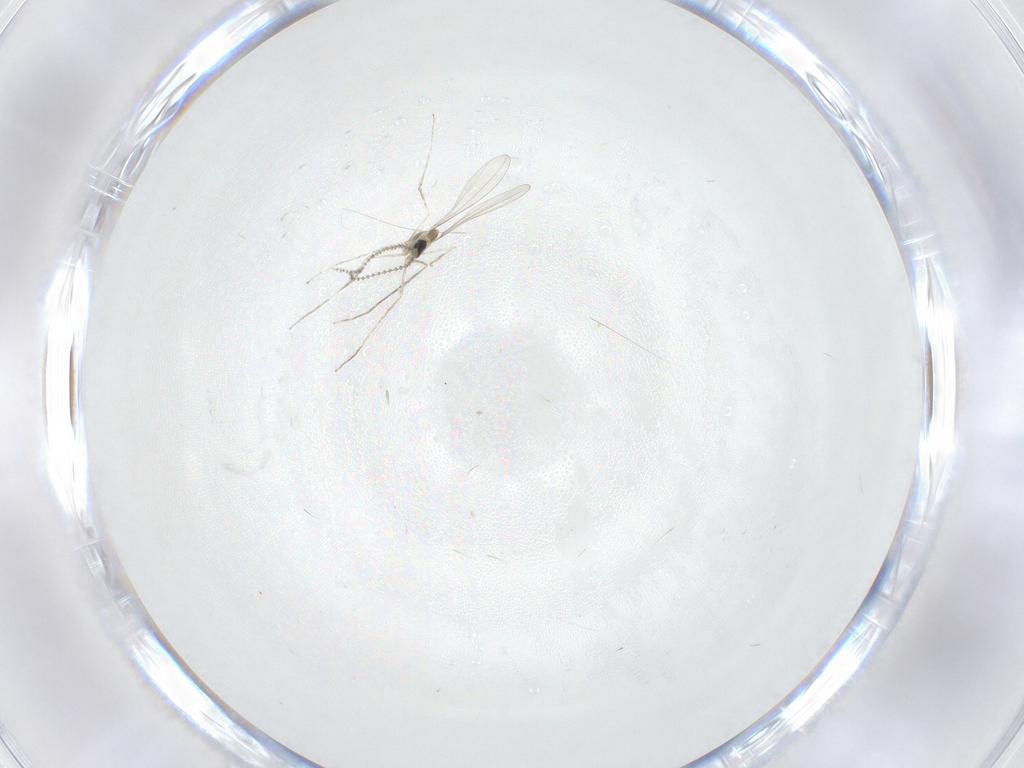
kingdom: Animalia
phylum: Arthropoda
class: Insecta
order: Diptera
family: Cecidomyiidae
